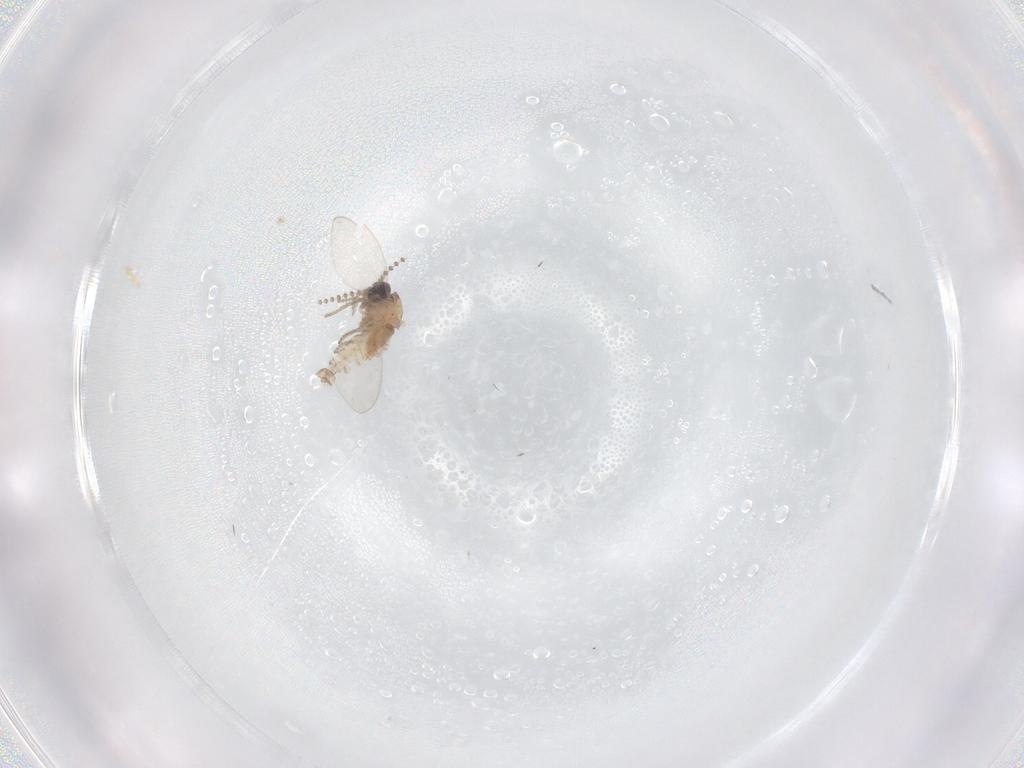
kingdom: Animalia
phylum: Arthropoda
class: Insecta
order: Diptera
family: Psychodidae
